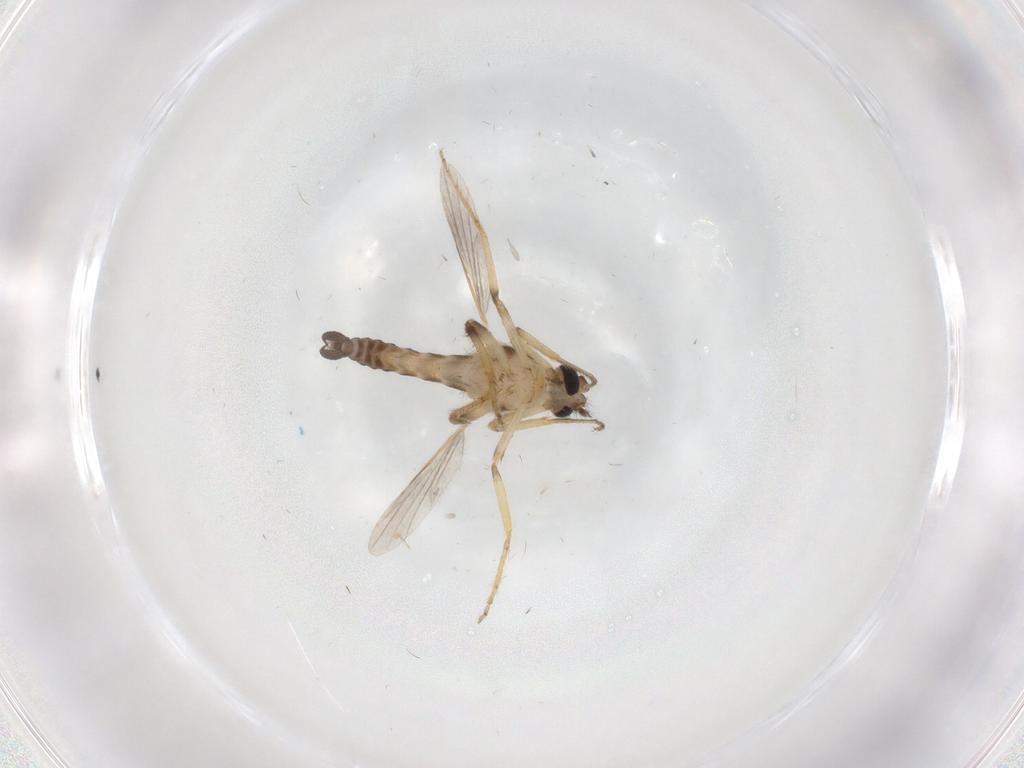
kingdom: Animalia
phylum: Arthropoda
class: Insecta
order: Diptera
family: Ceratopogonidae
